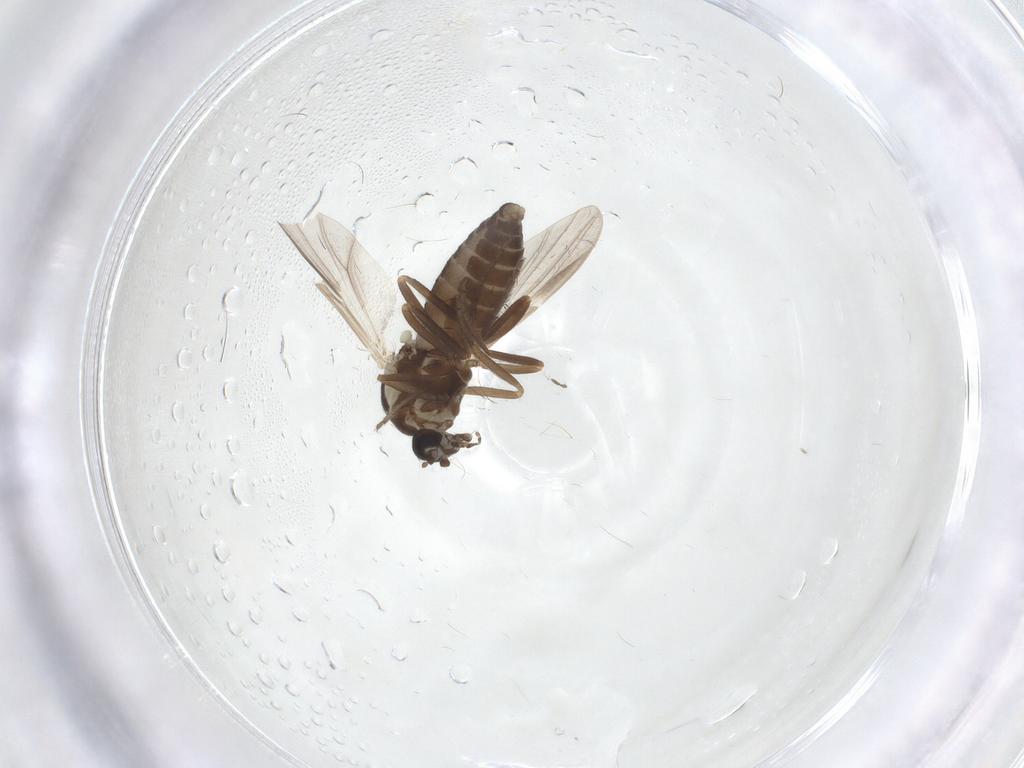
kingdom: Animalia
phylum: Arthropoda
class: Insecta
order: Diptera
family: Ceratopogonidae
